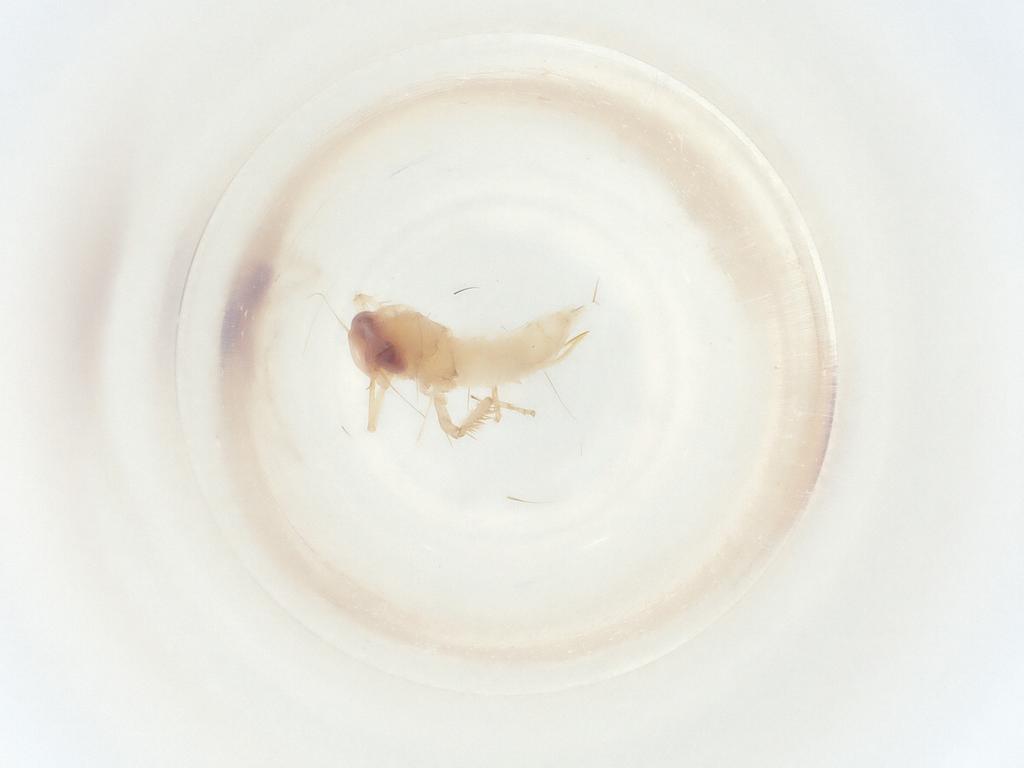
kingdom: Animalia
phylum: Arthropoda
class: Insecta
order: Hemiptera
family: Cicadellidae
